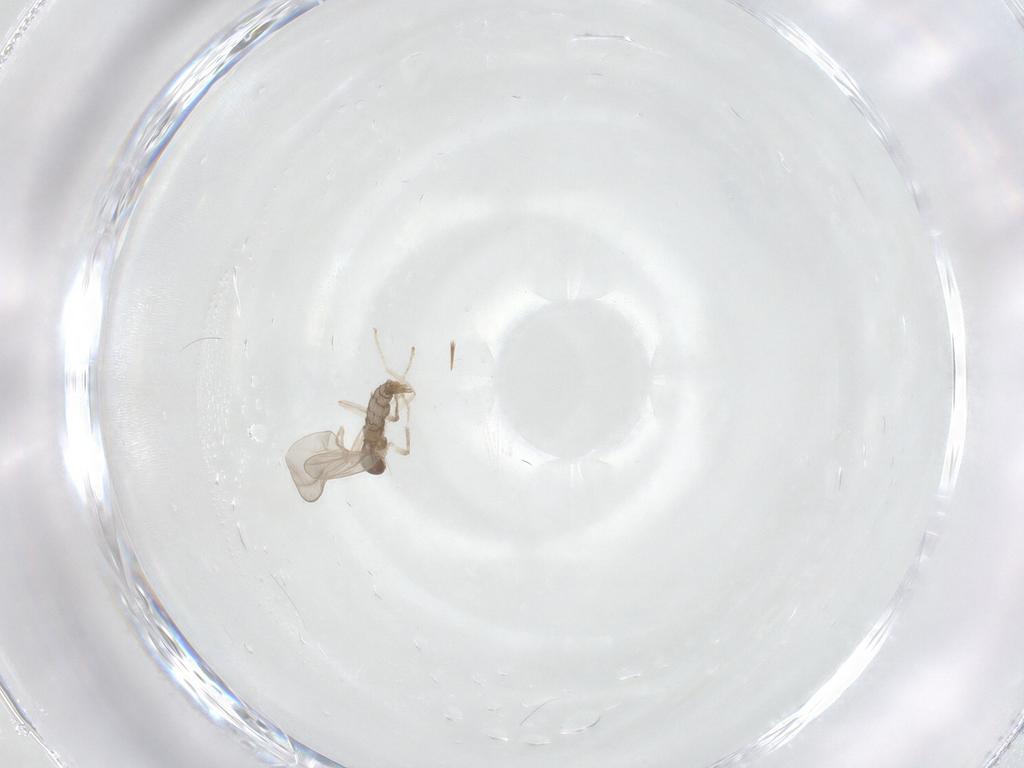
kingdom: Animalia
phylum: Arthropoda
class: Insecta
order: Diptera
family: Cecidomyiidae
